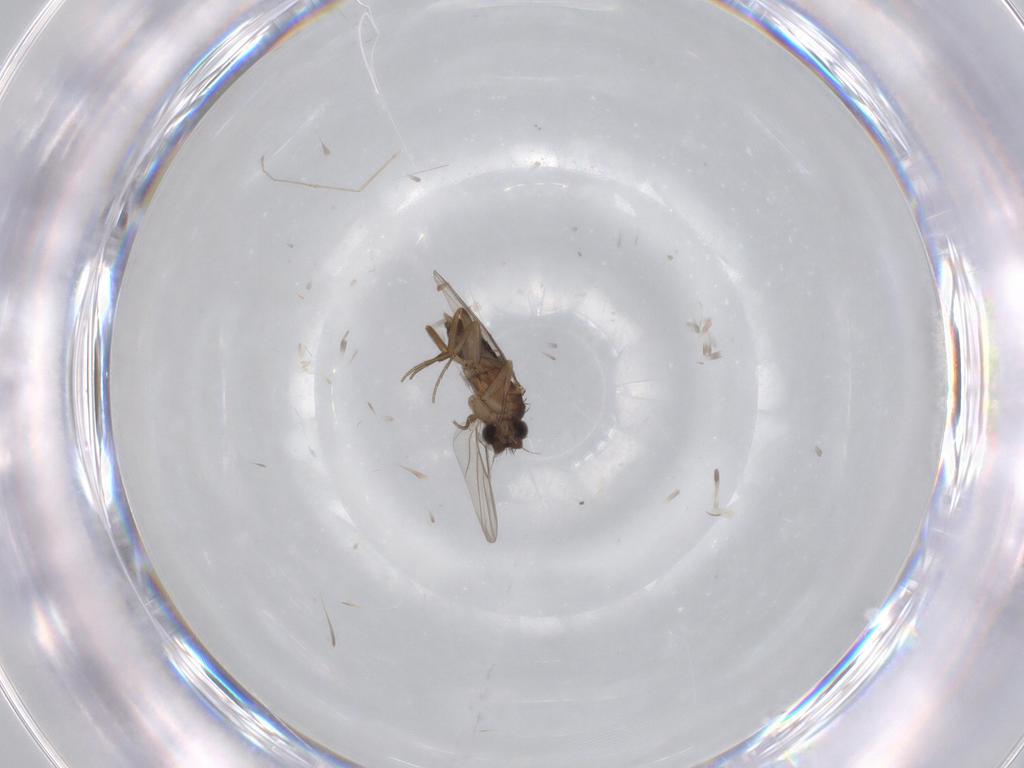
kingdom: Animalia
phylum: Arthropoda
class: Insecta
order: Diptera
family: Phoridae
